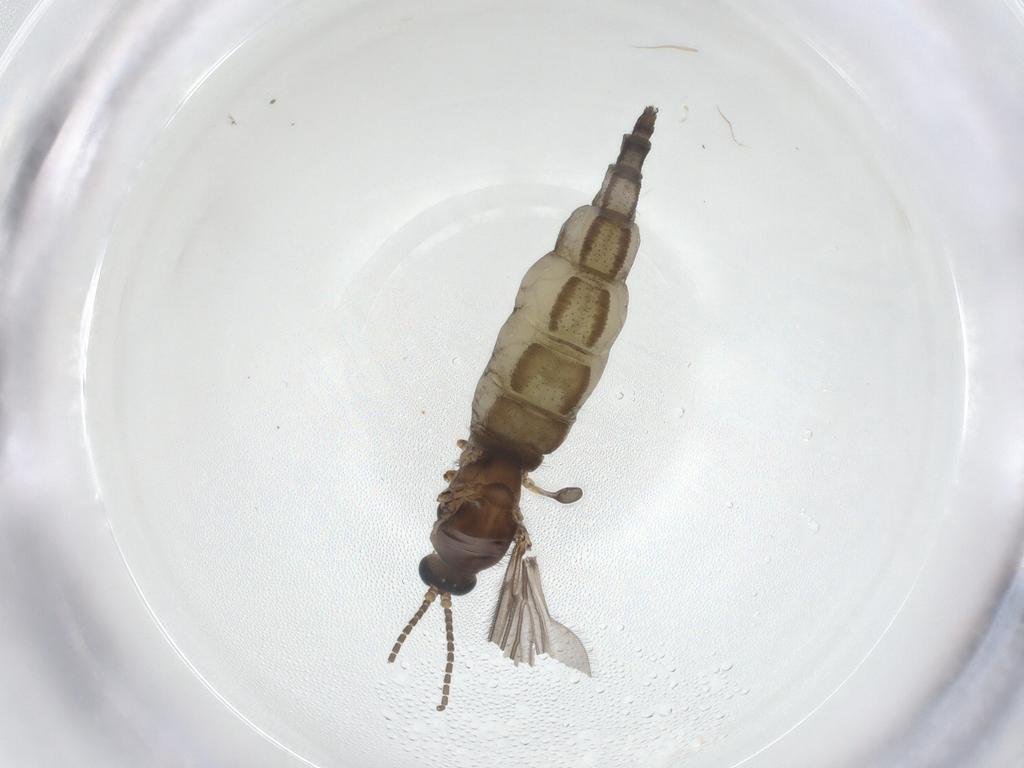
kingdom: Animalia
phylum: Arthropoda
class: Insecta
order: Diptera
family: Sciaridae
